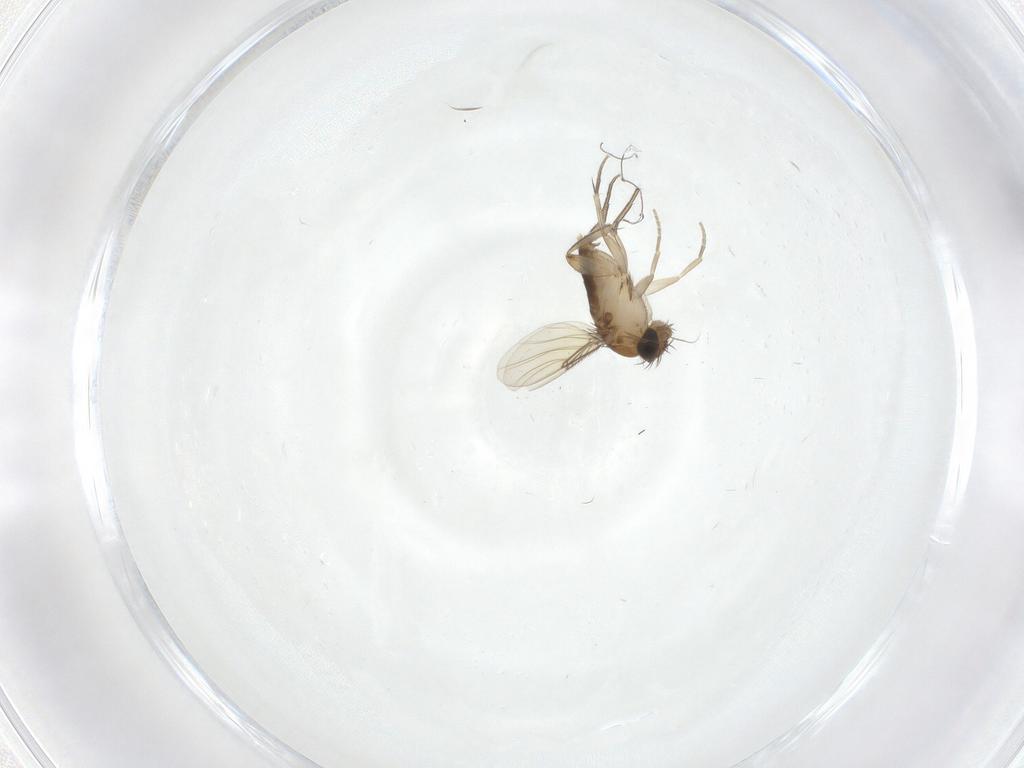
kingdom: Animalia
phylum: Arthropoda
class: Insecta
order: Diptera
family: Phoridae
